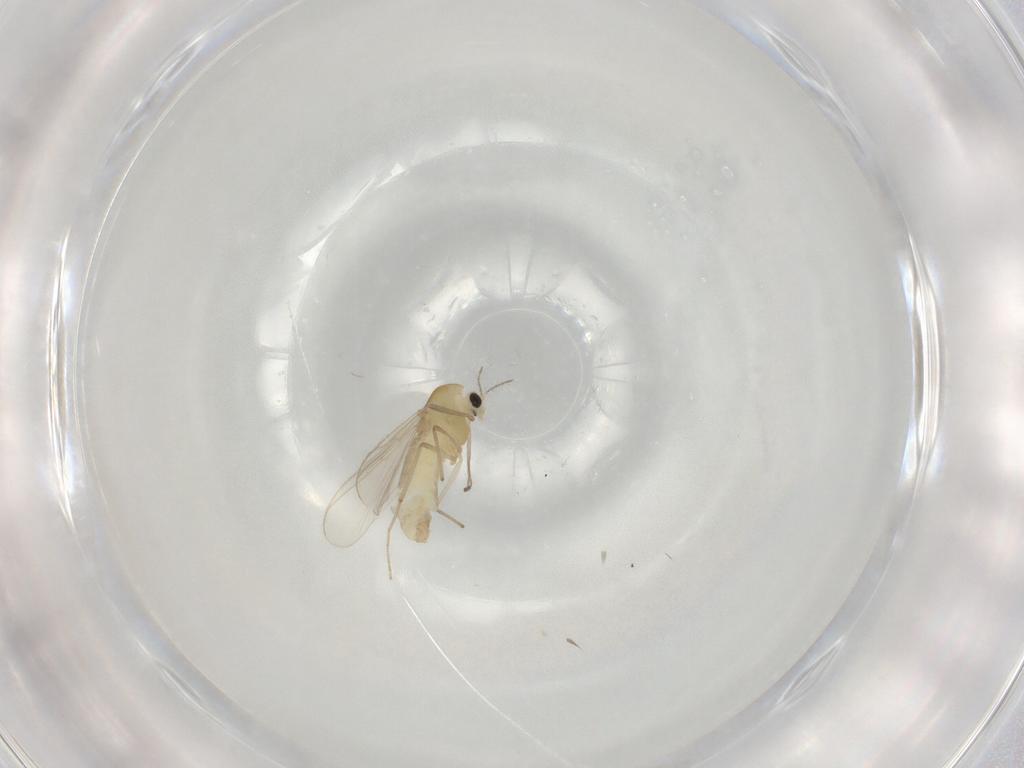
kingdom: Animalia
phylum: Arthropoda
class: Insecta
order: Diptera
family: Chironomidae
